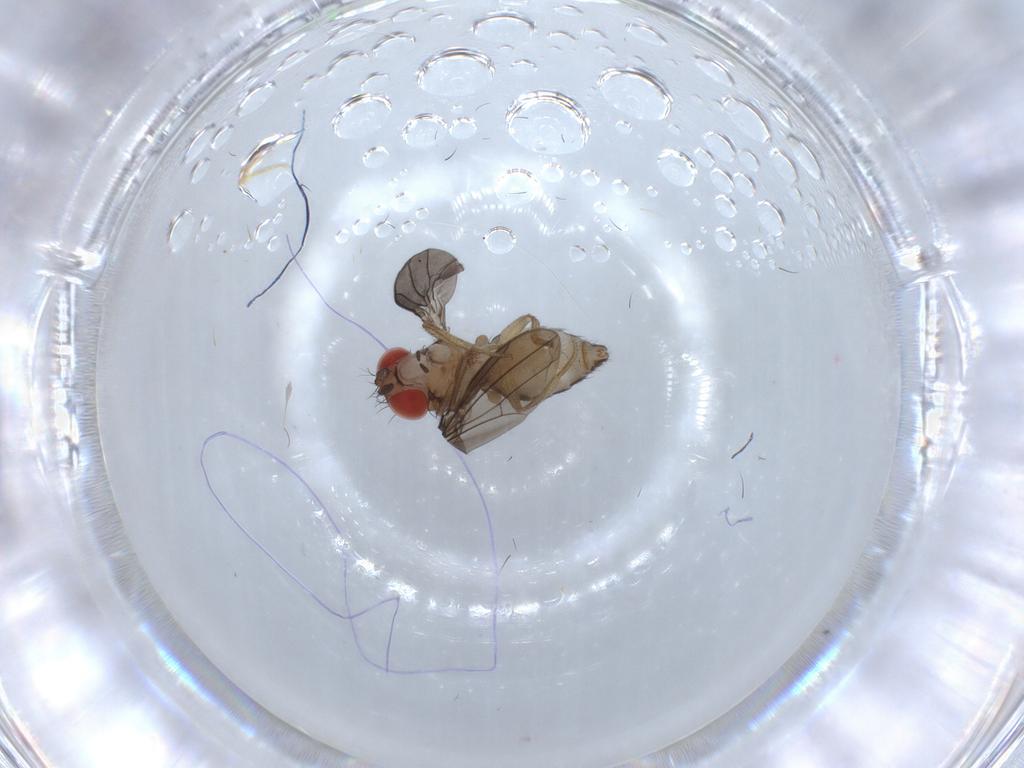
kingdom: Animalia
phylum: Arthropoda
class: Insecta
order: Diptera
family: Drosophilidae
